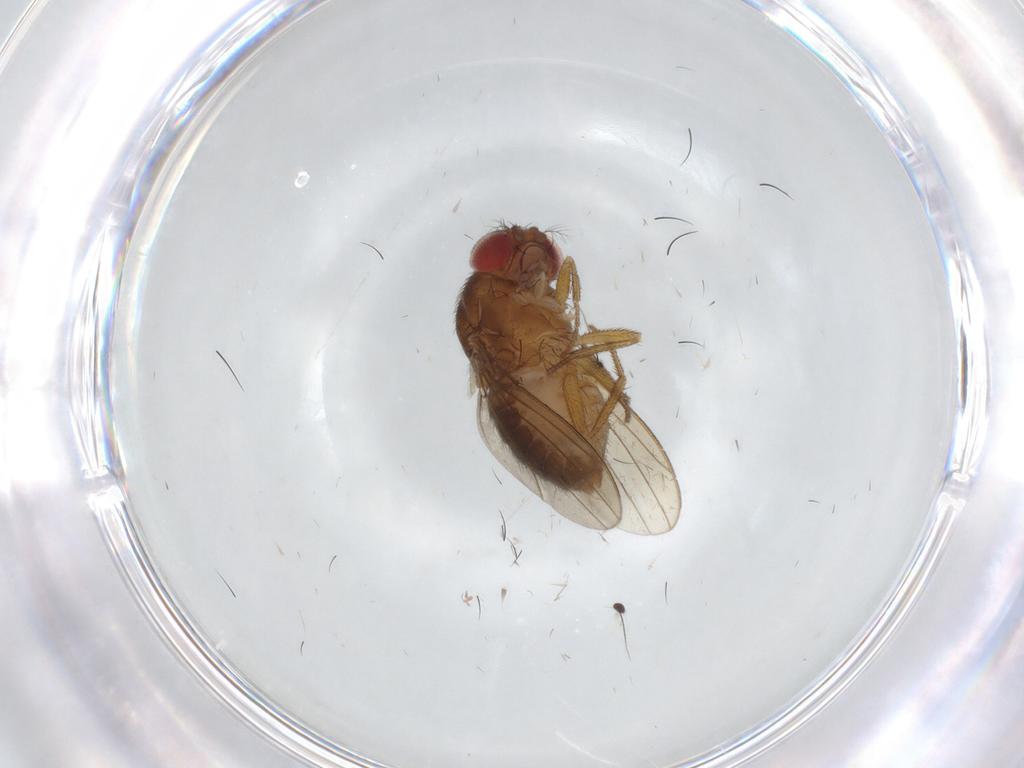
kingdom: Animalia
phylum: Arthropoda
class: Insecta
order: Diptera
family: Drosophilidae
